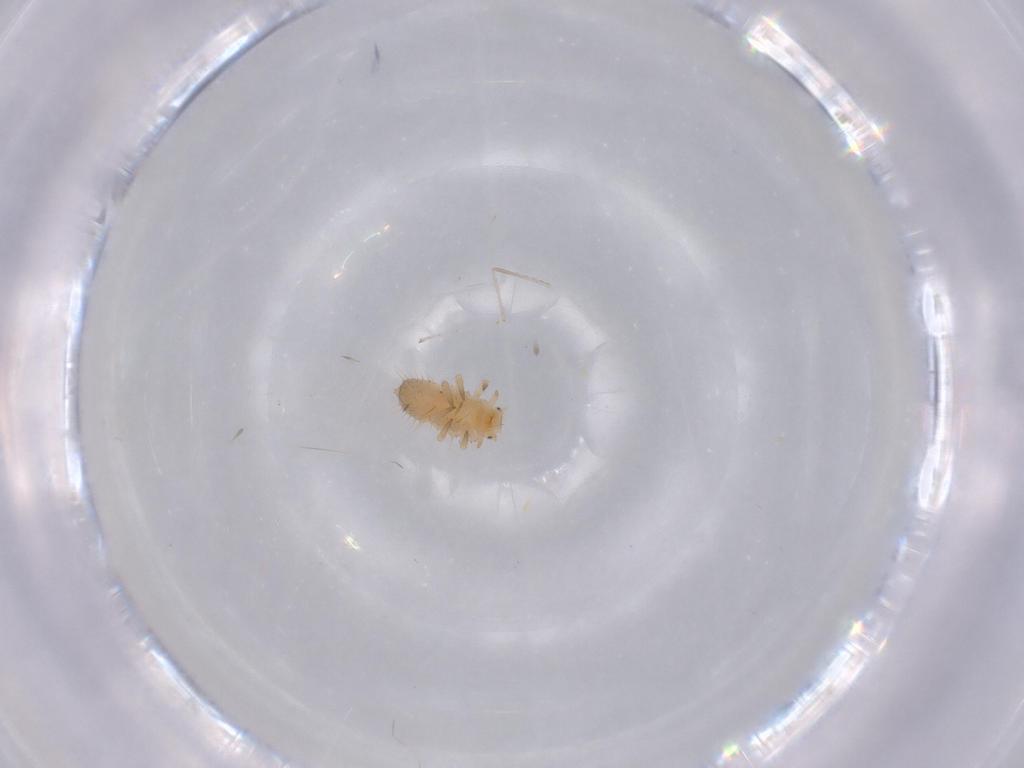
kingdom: Animalia
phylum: Arthropoda
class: Insecta
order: Coleoptera
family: Coccinellidae
